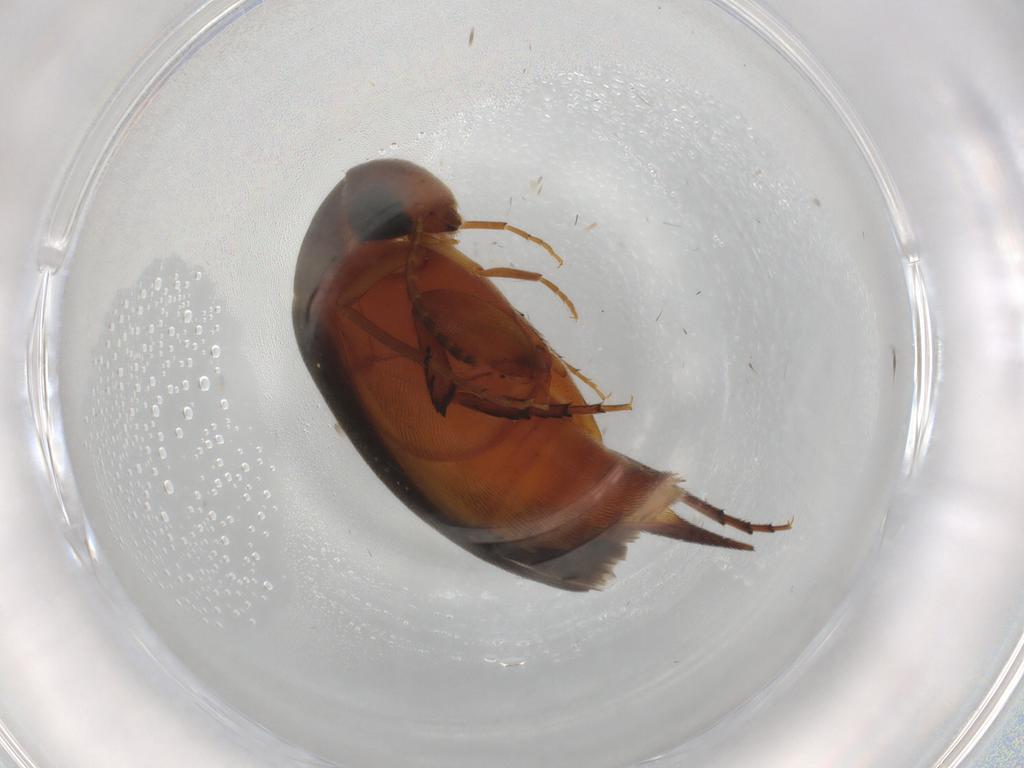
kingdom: Animalia
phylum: Arthropoda
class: Insecta
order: Coleoptera
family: Mordellidae
